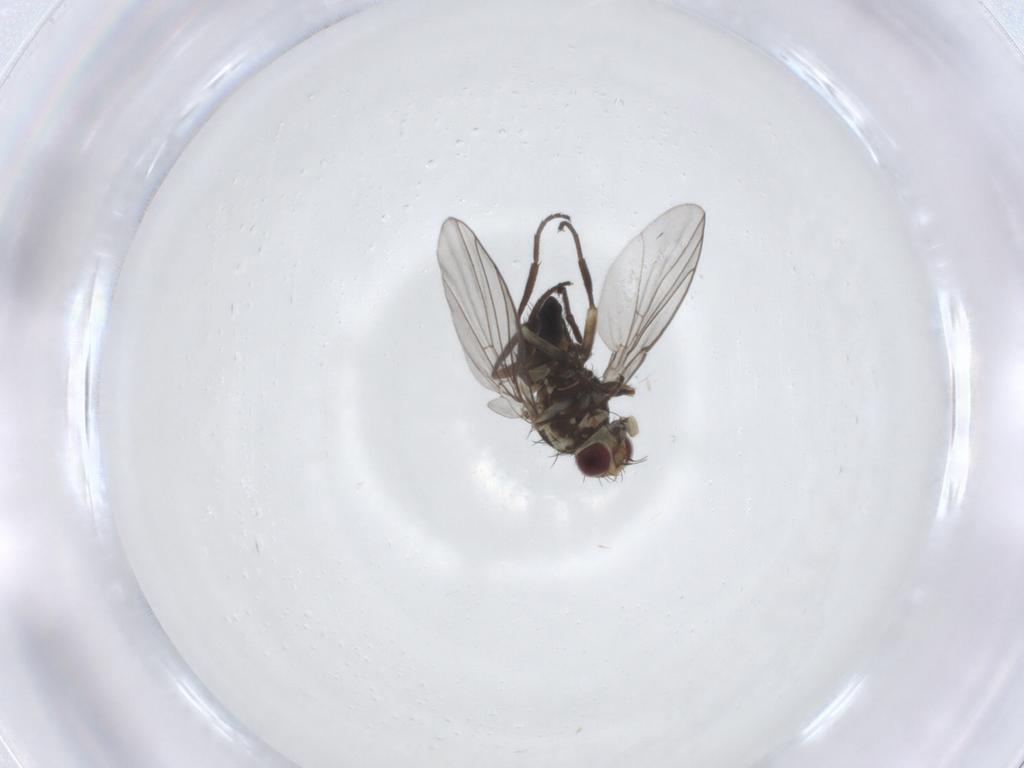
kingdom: Animalia
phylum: Arthropoda
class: Insecta
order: Diptera
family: Agromyzidae
